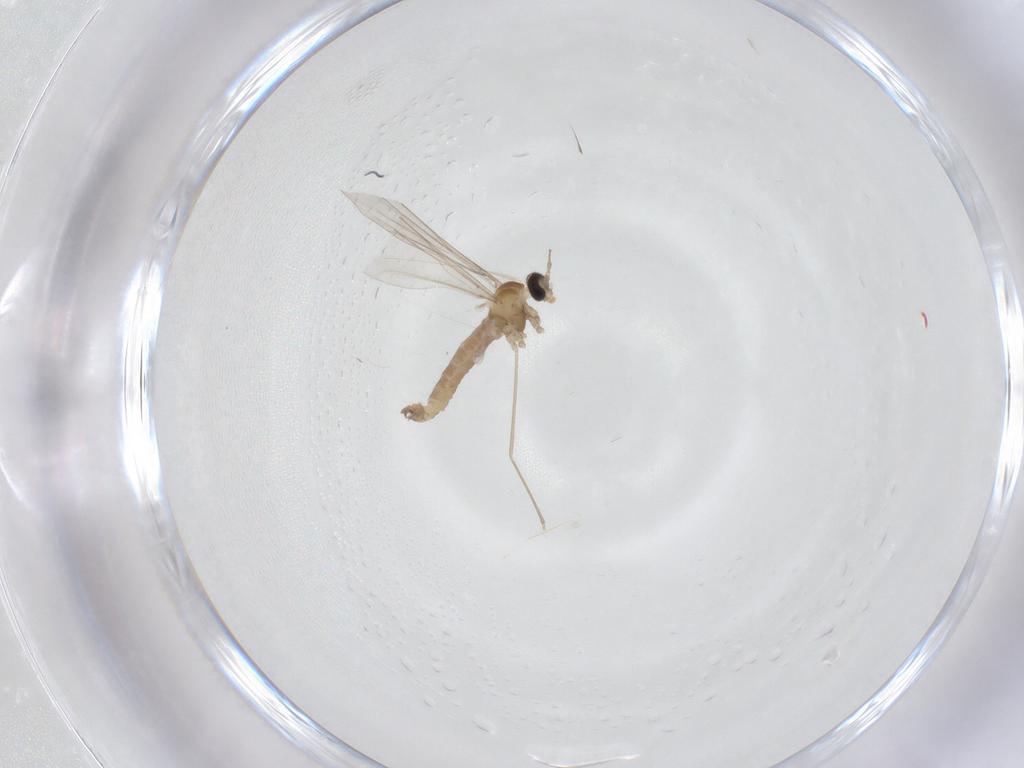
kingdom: Animalia
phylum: Arthropoda
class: Insecta
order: Diptera
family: Cecidomyiidae
